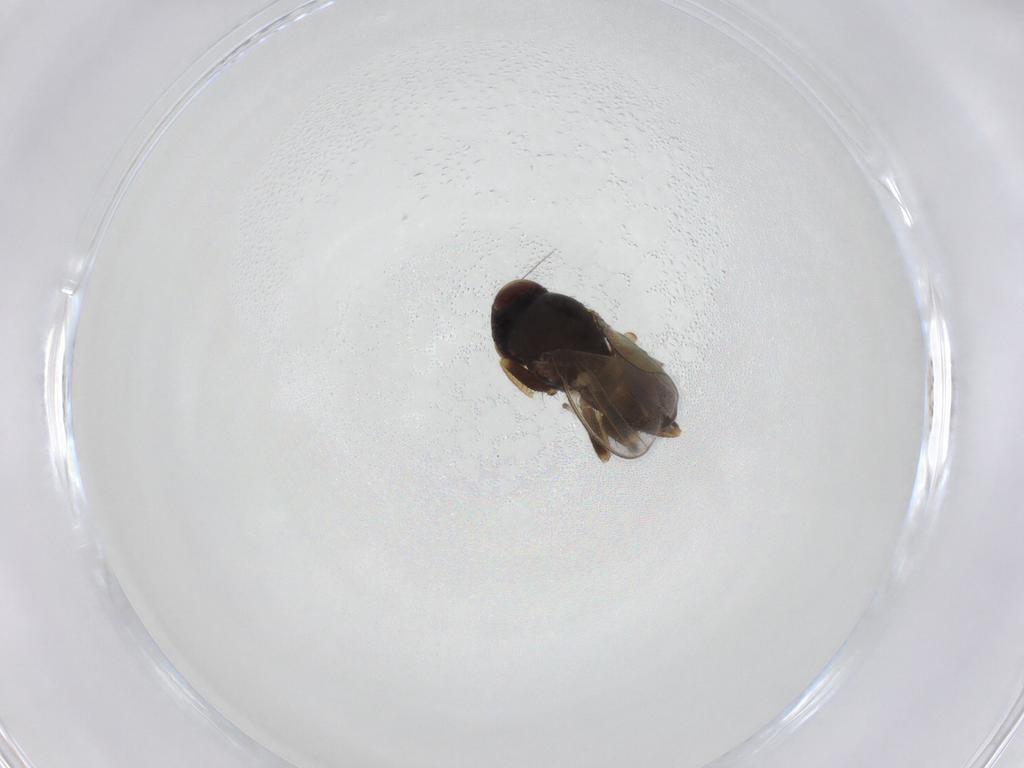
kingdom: Animalia
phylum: Arthropoda
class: Insecta
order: Diptera
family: Milichiidae
